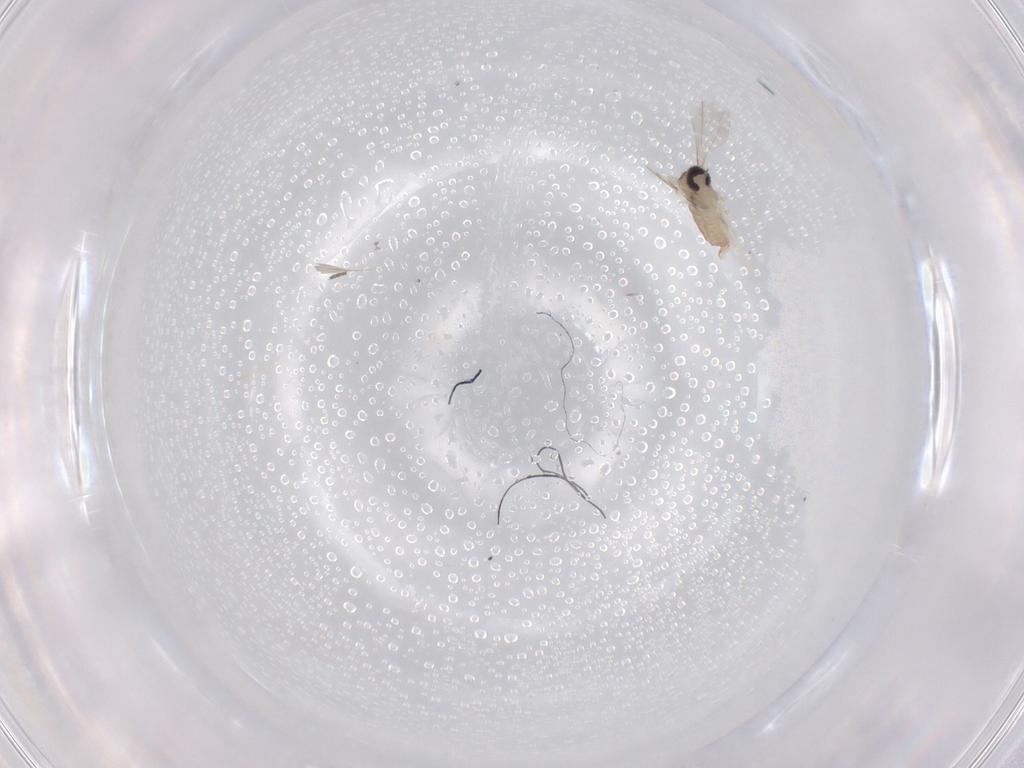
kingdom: Animalia
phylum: Arthropoda
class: Insecta
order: Diptera
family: Cecidomyiidae
